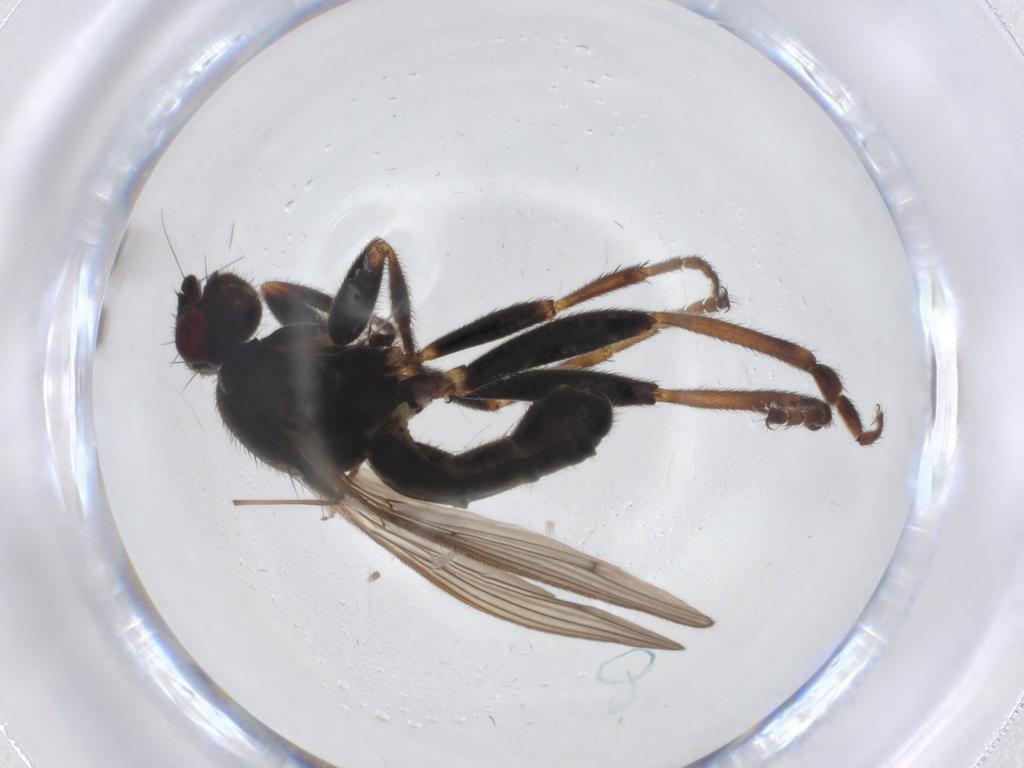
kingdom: Animalia
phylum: Arthropoda
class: Insecta
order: Diptera
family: Sphaeroceridae
